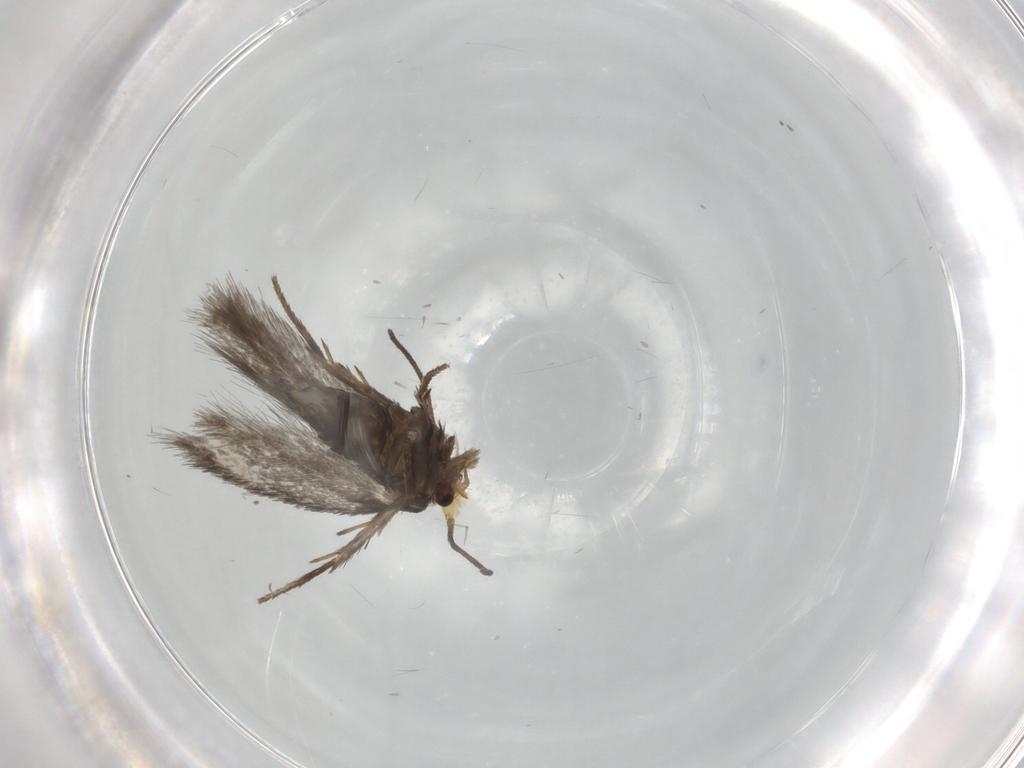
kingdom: Animalia
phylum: Arthropoda
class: Insecta
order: Lepidoptera
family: Nepticulidae
